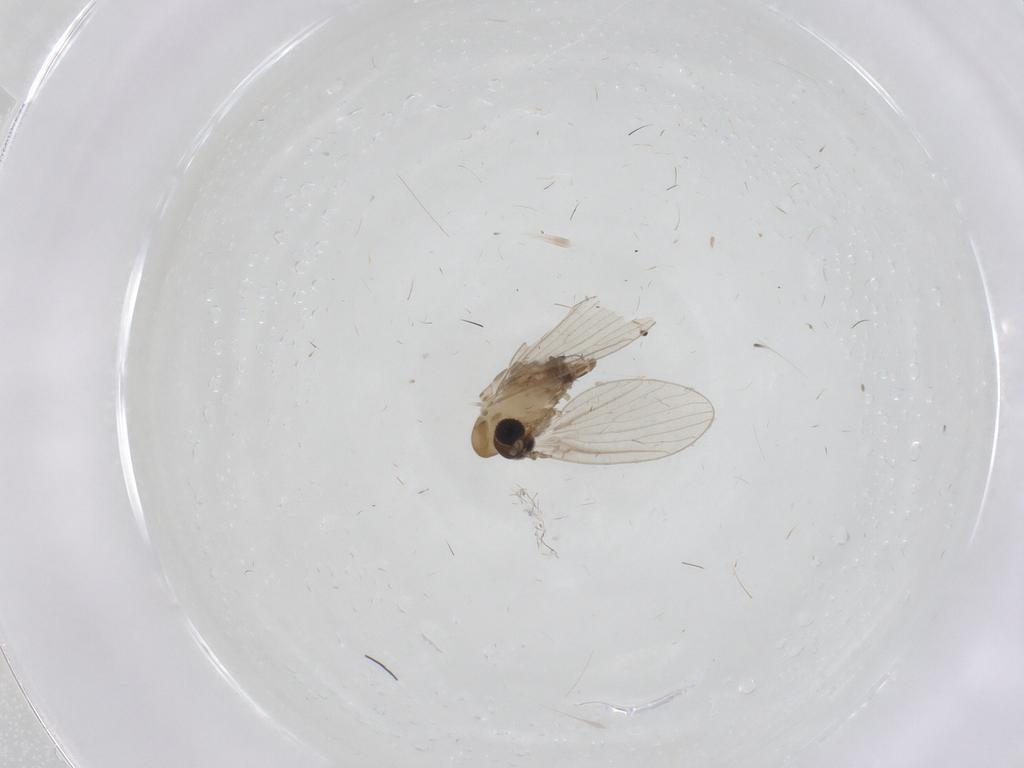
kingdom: Animalia
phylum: Arthropoda
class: Insecta
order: Diptera
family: Psychodidae
